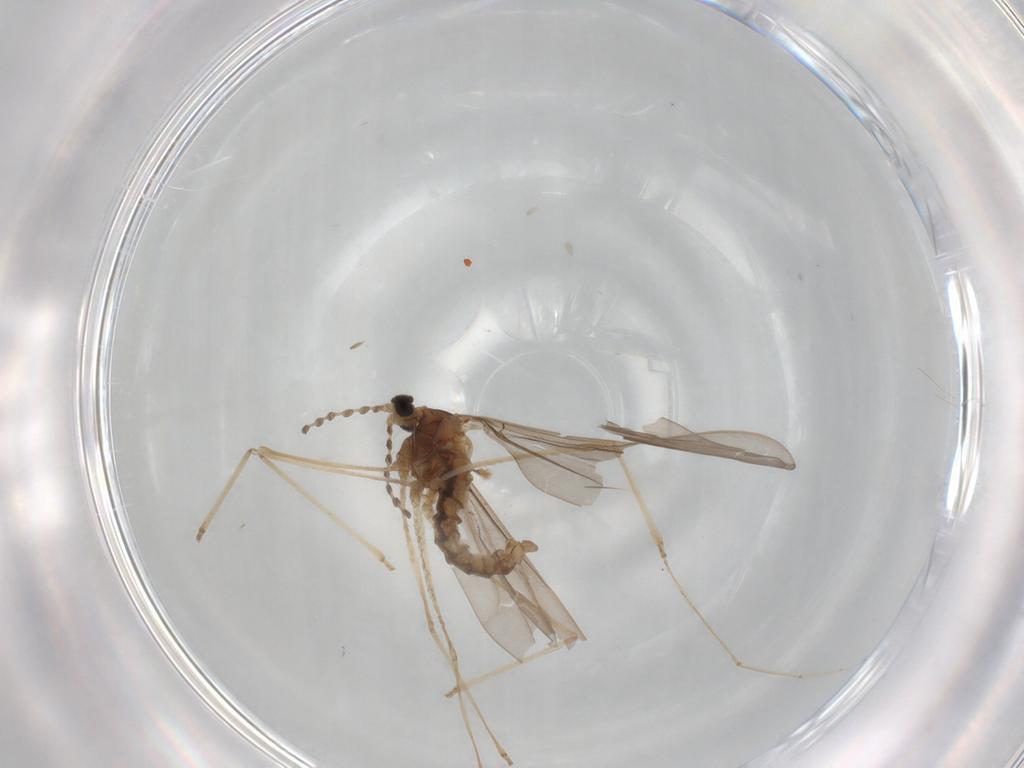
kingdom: Animalia
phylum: Arthropoda
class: Insecta
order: Diptera
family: Cecidomyiidae
